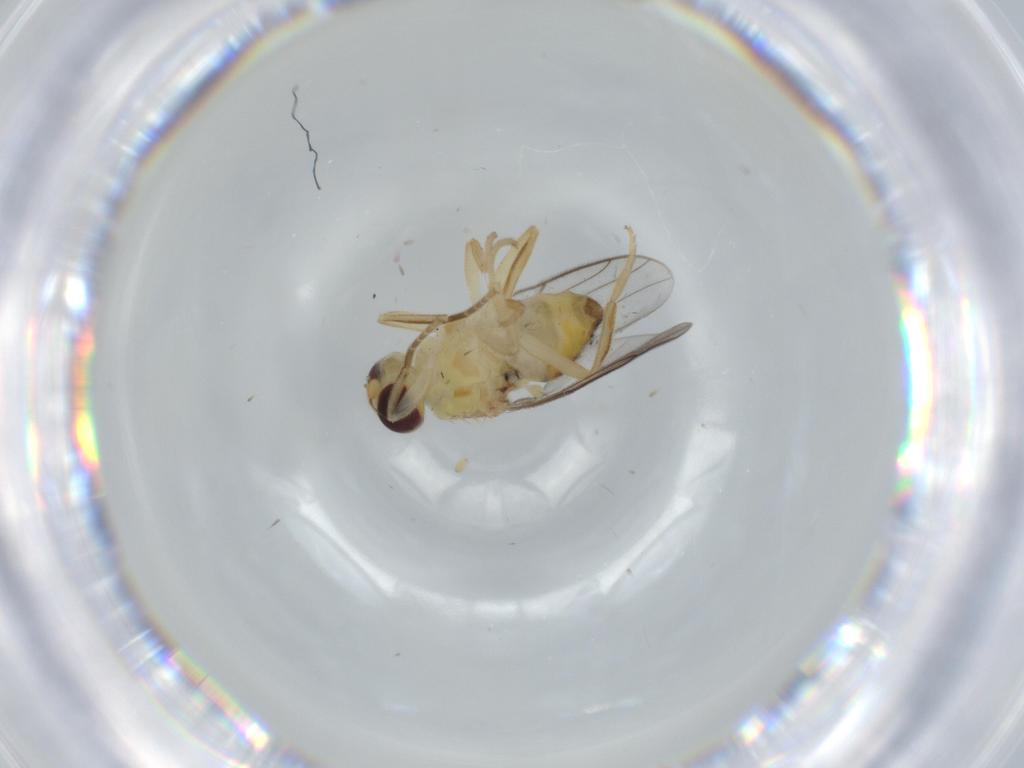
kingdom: Animalia
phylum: Arthropoda
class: Insecta
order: Diptera
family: Chloropidae
